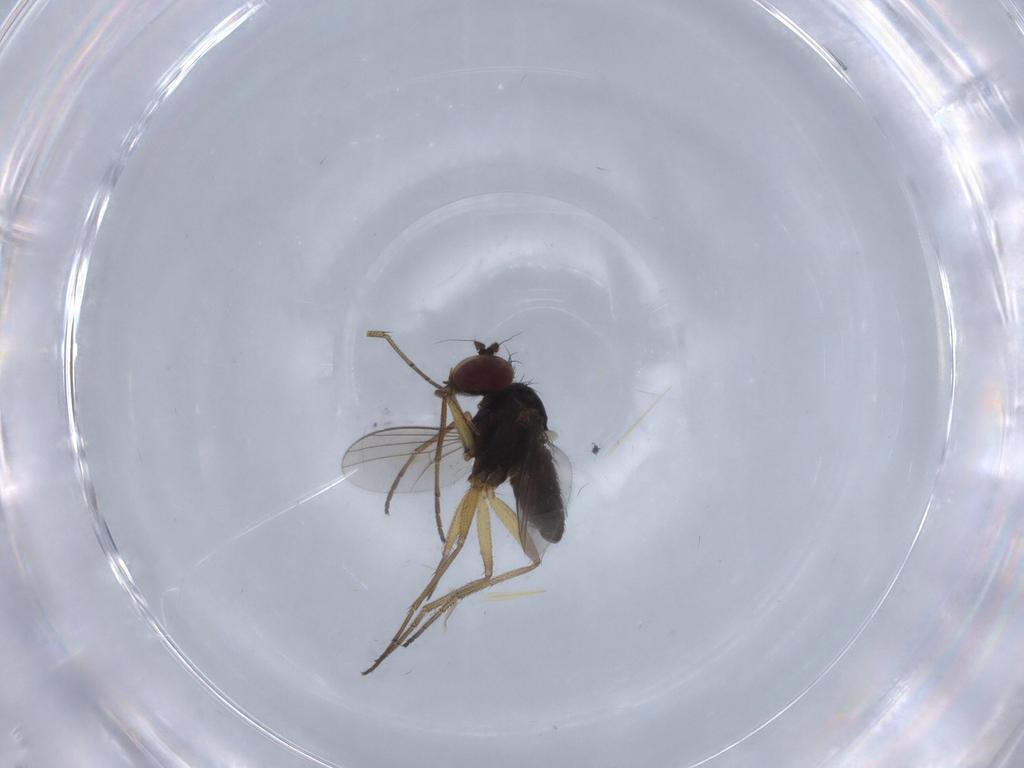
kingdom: Animalia
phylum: Arthropoda
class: Insecta
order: Diptera
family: Dolichopodidae
